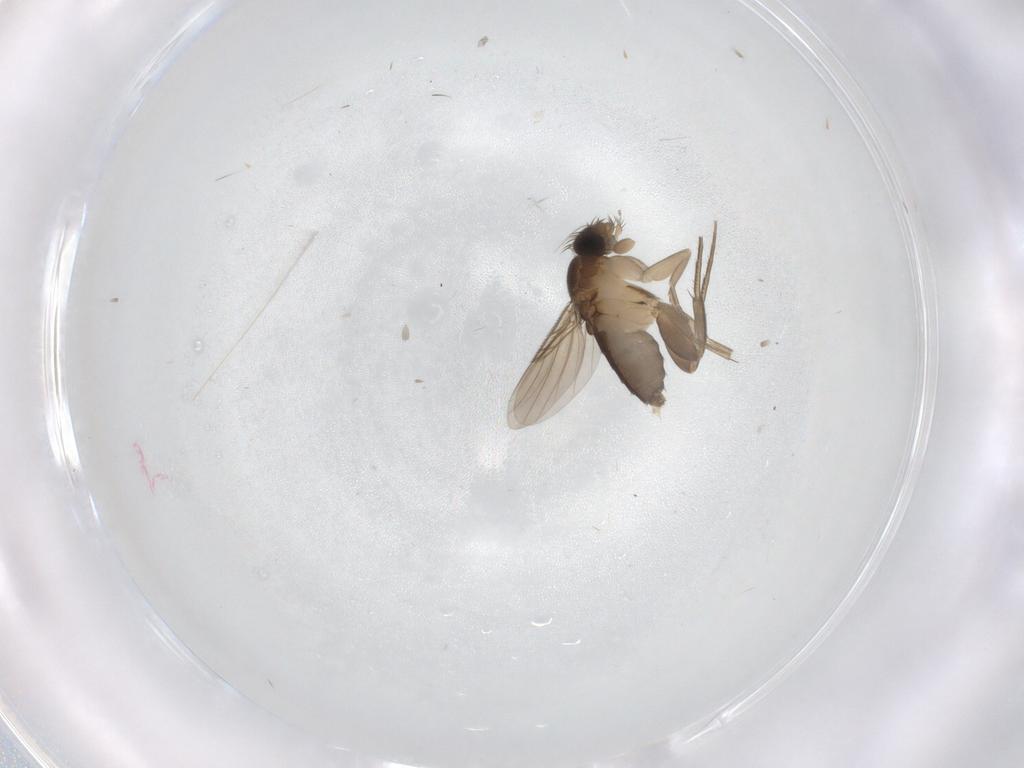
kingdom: Animalia
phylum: Arthropoda
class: Insecta
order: Diptera
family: Phoridae
